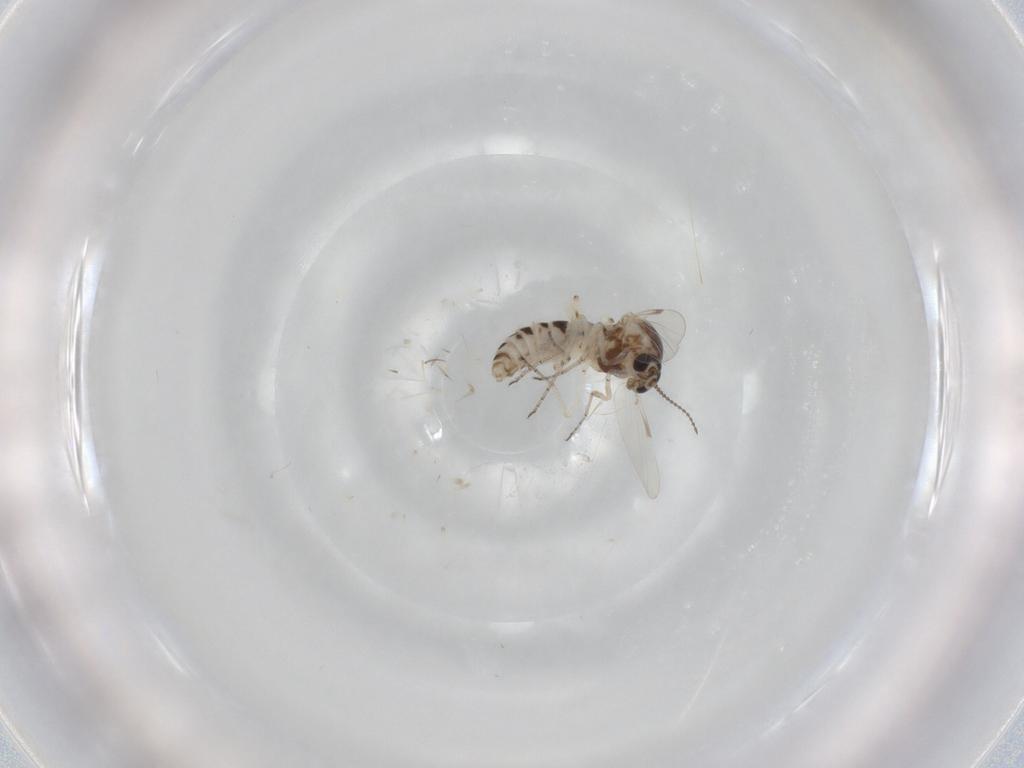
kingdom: Animalia
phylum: Arthropoda
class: Insecta
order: Diptera
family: Ceratopogonidae
